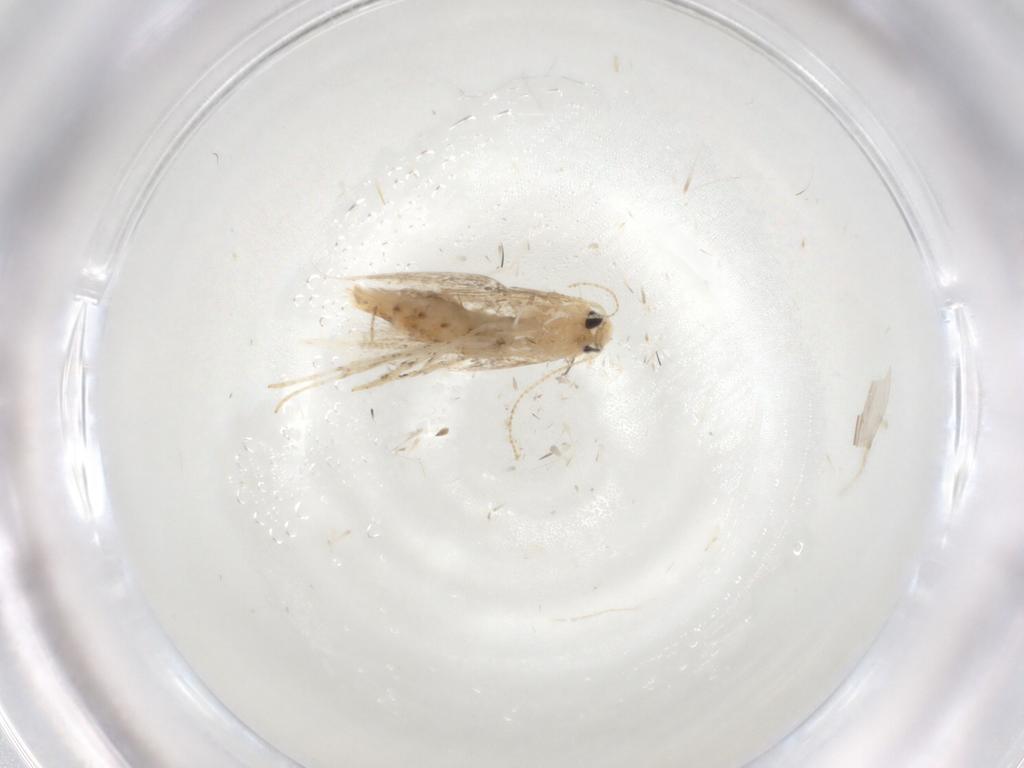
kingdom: Animalia
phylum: Arthropoda
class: Insecta
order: Lepidoptera
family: Gracillariidae
